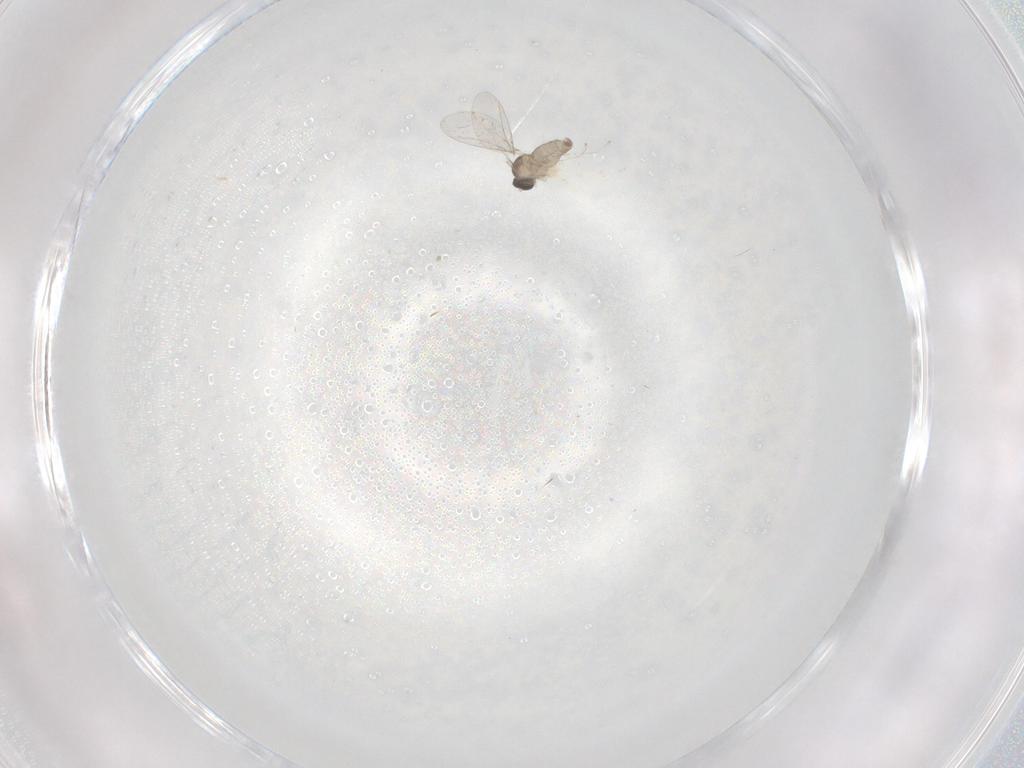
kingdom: Animalia
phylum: Arthropoda
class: Insecta
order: Diptera
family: Cecidomyiidae
